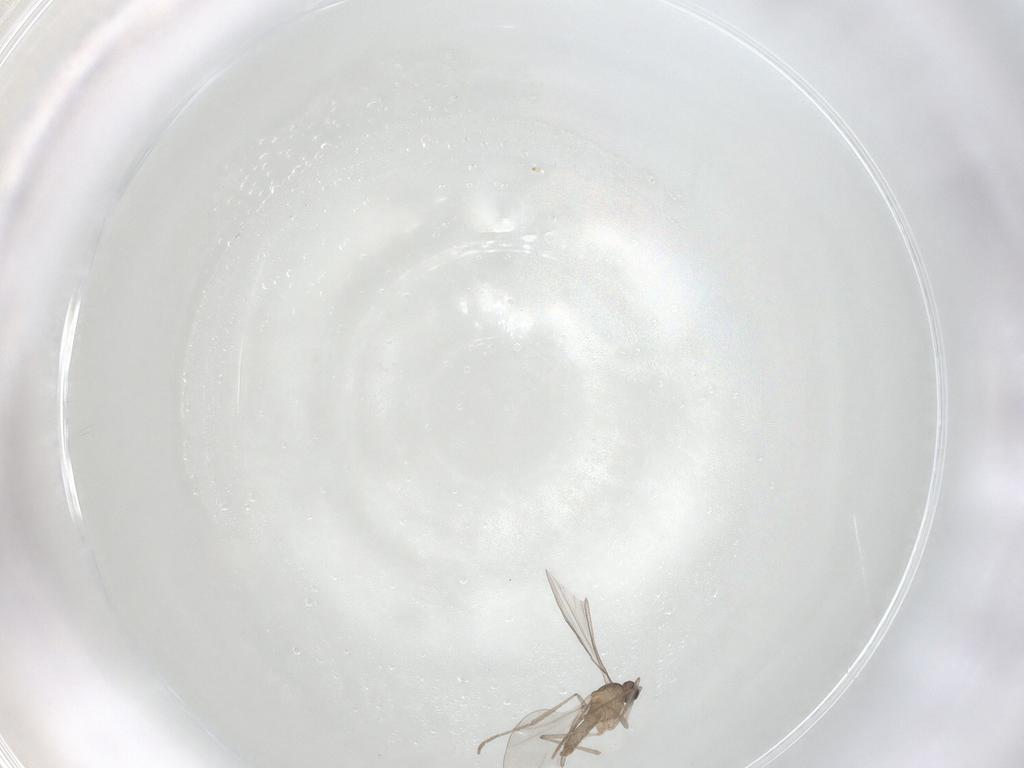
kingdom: Animalia
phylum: Arthropoda
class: Insecta
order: Diptera
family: Cecidomyiidae
